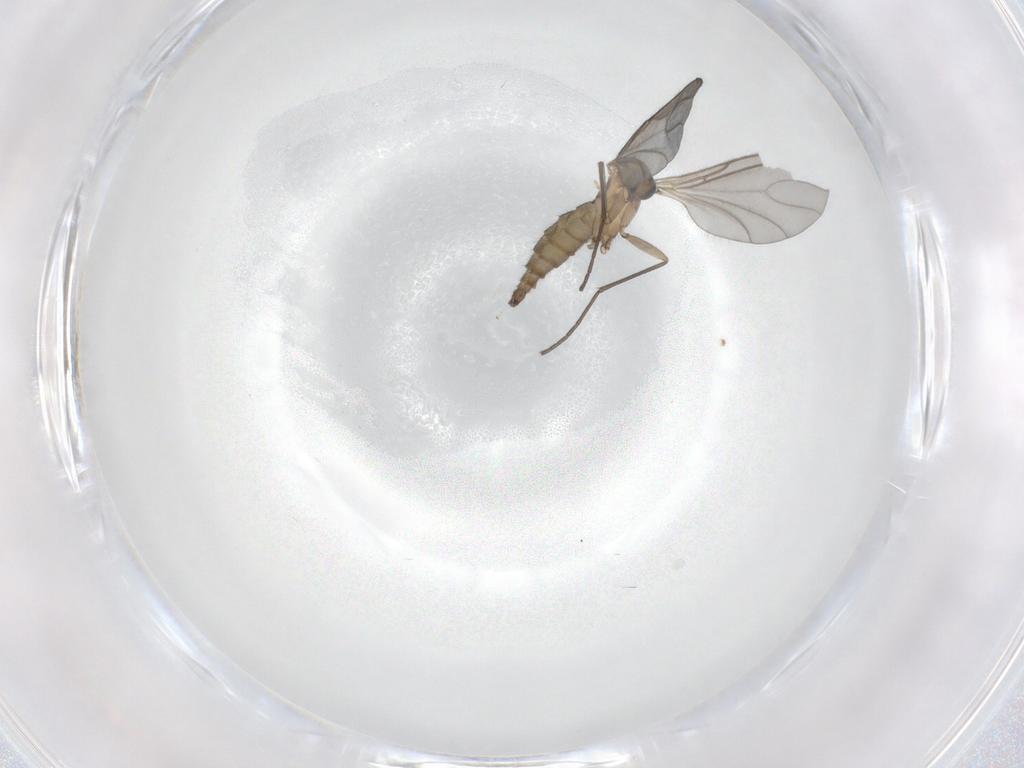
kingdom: Animalia
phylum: Arthropoda
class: Insecta
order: Diptera
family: Sciaridae
